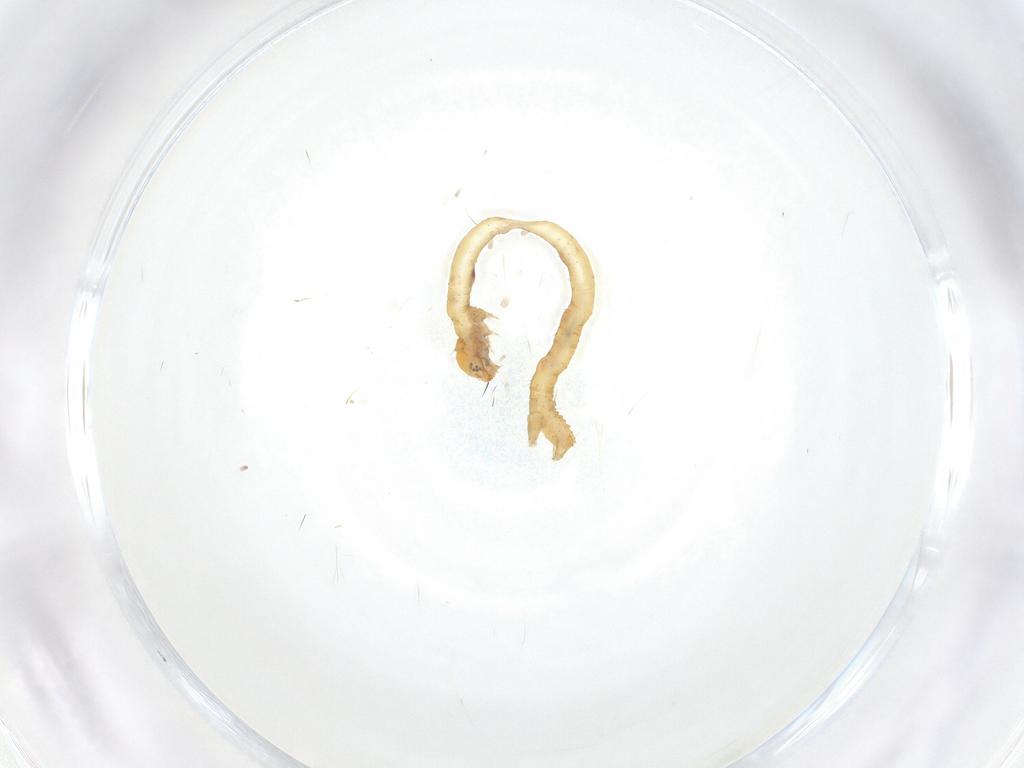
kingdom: Animalia
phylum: Arthropoda
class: Insecta
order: Lepidoptera
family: Geometridae
